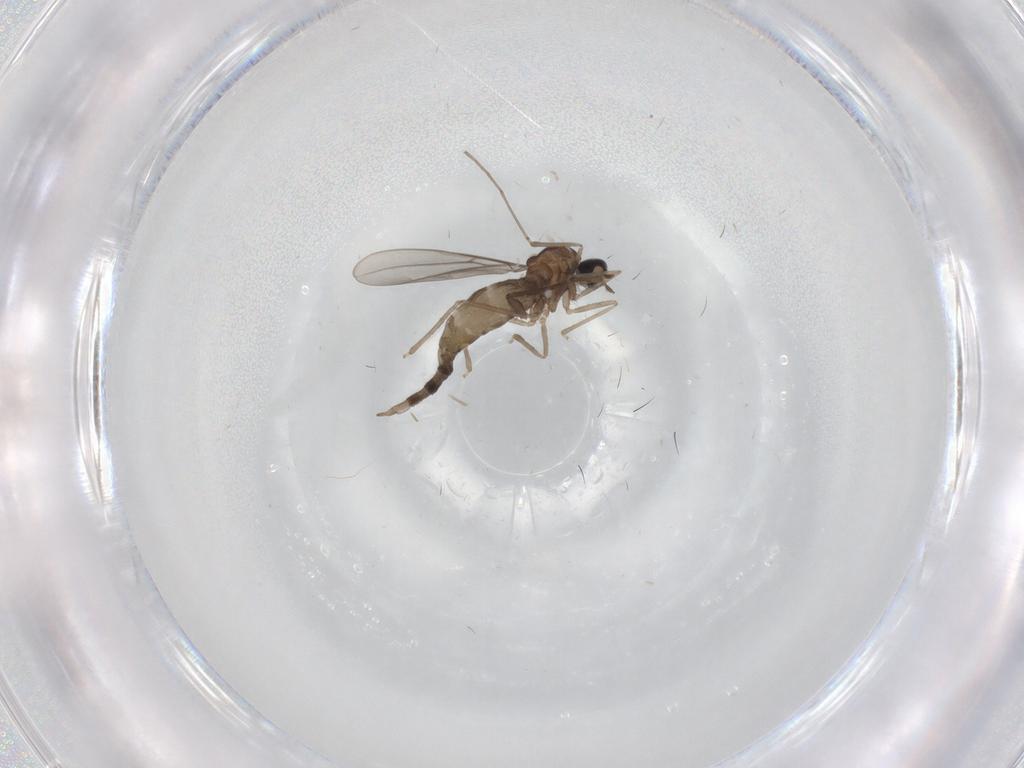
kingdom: Animalia
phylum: Arthropoda
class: Insecta
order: Diptera
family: Psychodidae
